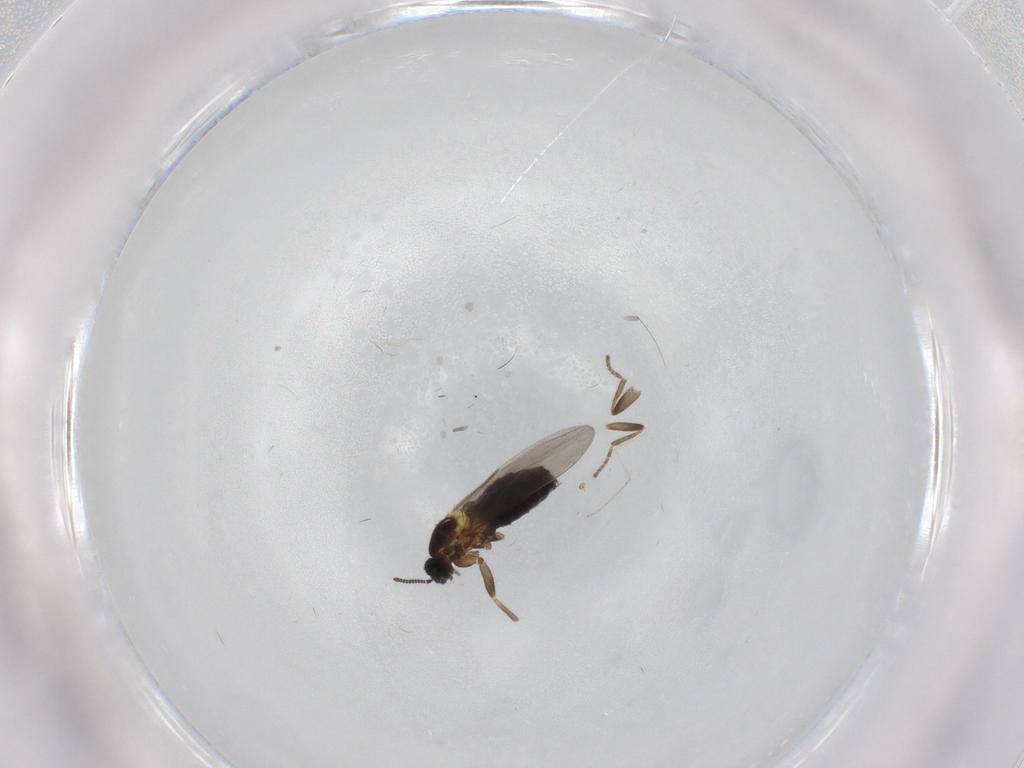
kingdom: Animalia
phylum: Arthropoda
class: Insecta
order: Diptera
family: Scatopsidae
